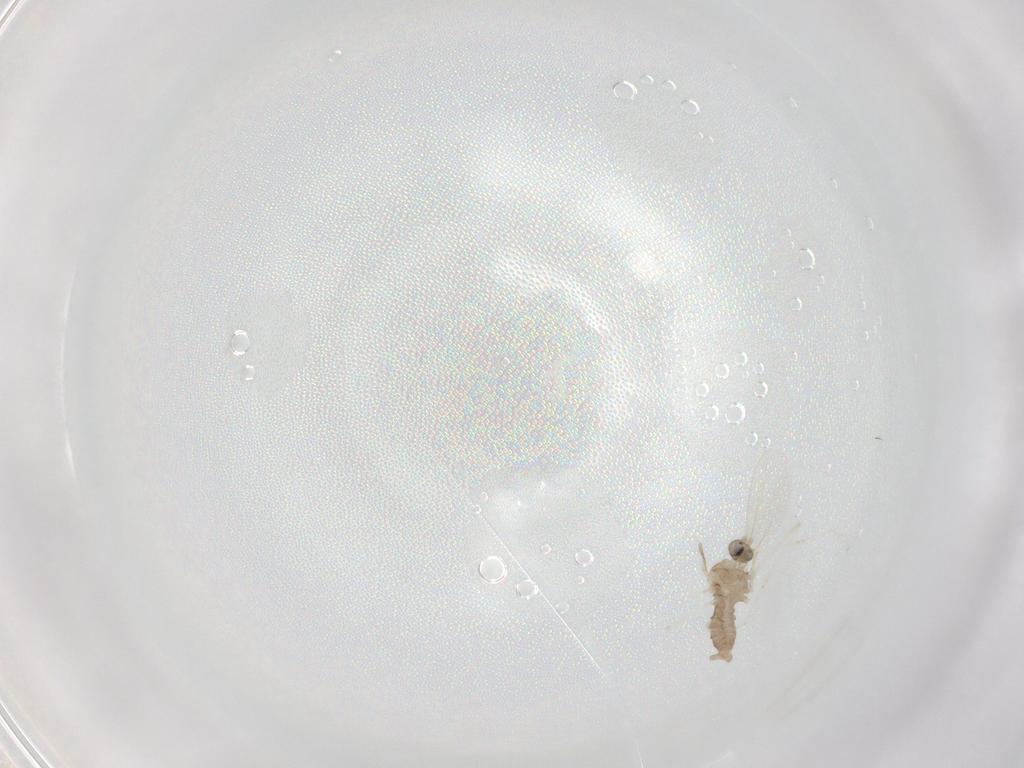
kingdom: Animalia
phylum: Arthropoda
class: Insecta
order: Diptera
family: Cecidomyiidae
